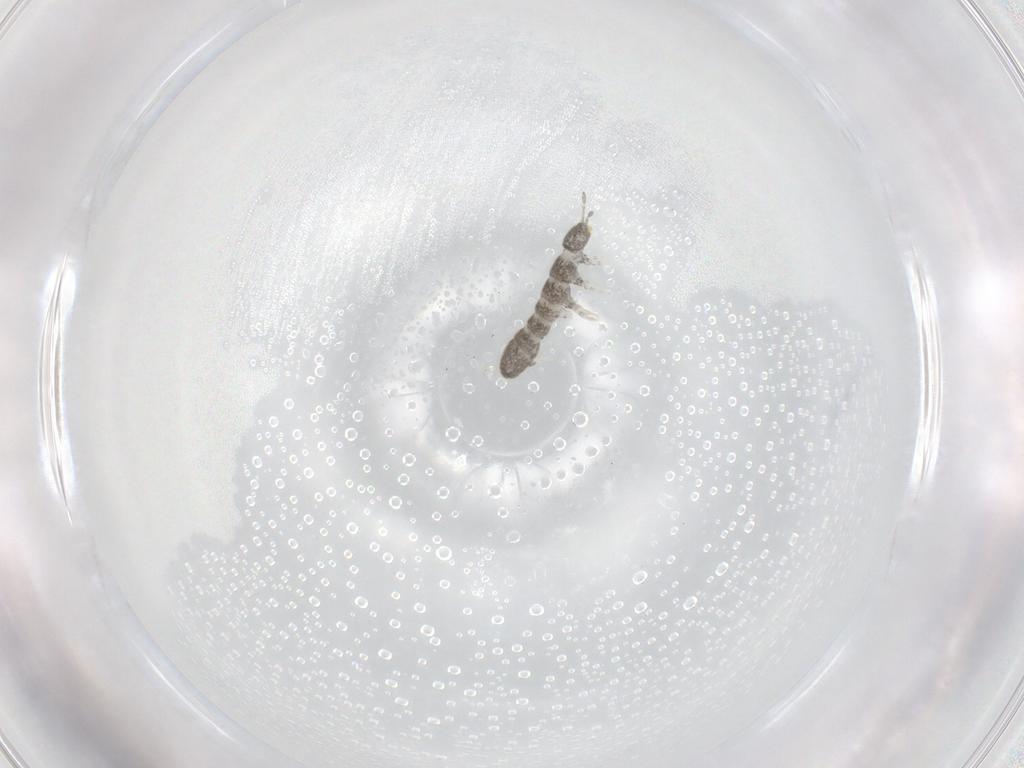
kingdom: Animalia
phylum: Arthropoda
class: Collembola
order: Entomobryomorpha
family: Isotomidae
